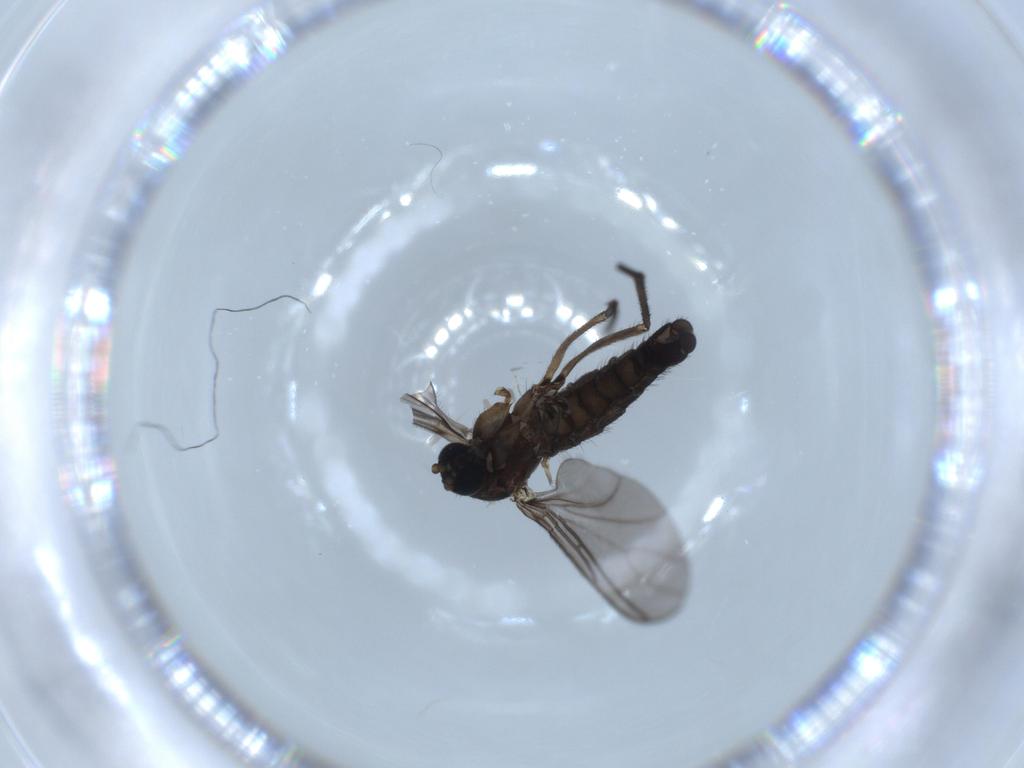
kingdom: Animalia
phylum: Arthropoda
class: Insecta
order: Diptera
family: Sciaridae
